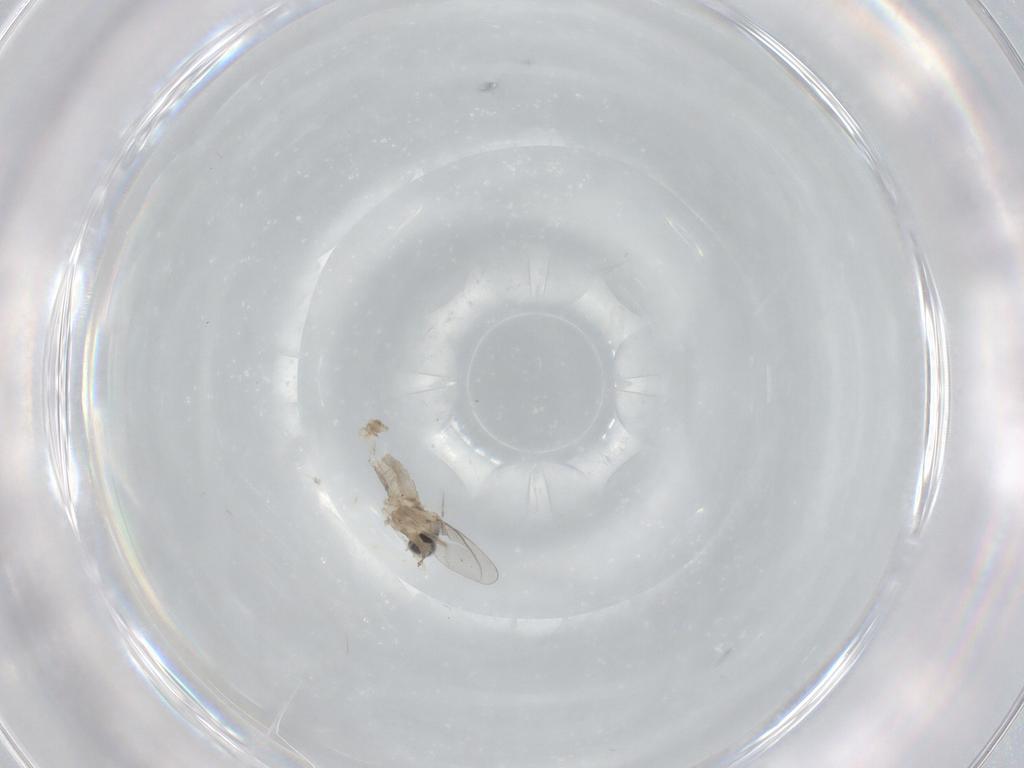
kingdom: Animalia
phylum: Arthropoda
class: Insecta
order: Diptera
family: Cecidomyiidae
